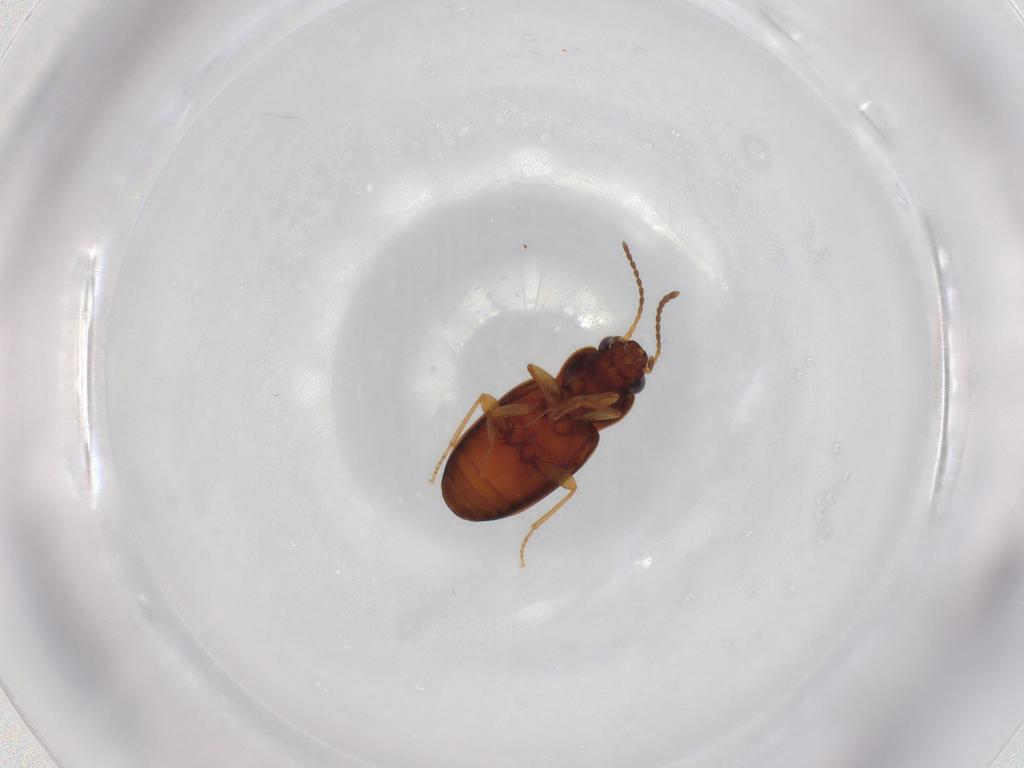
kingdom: Animalia
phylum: Arthropoda
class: Insecta
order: Coleoptera
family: Carabidae
